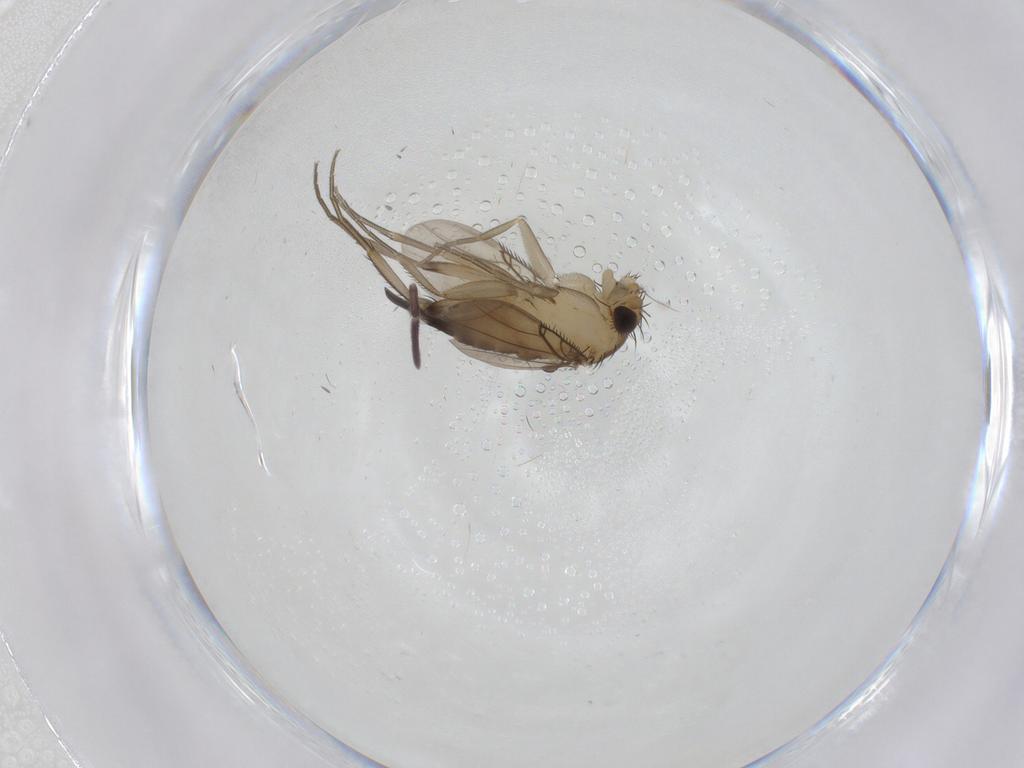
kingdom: Animalia
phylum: Arthropoda
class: Insecta
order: Diptera
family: Phoridae
